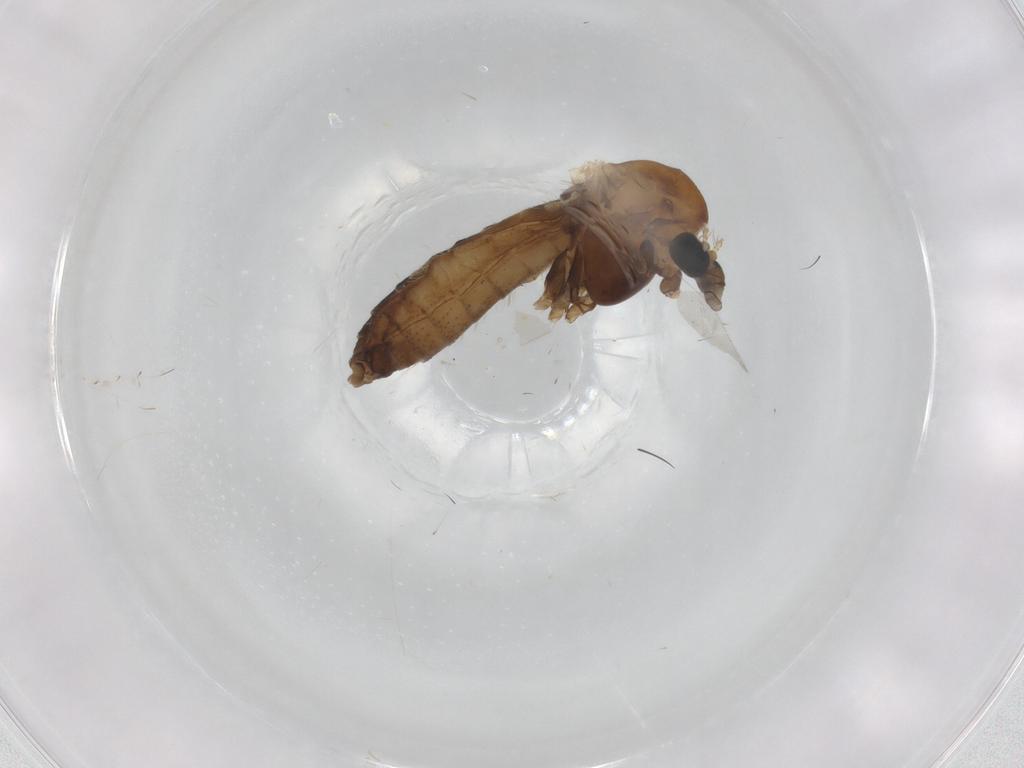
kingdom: Animalia
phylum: Arthropoda
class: Insecta
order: Diptera
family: Chironomidae
